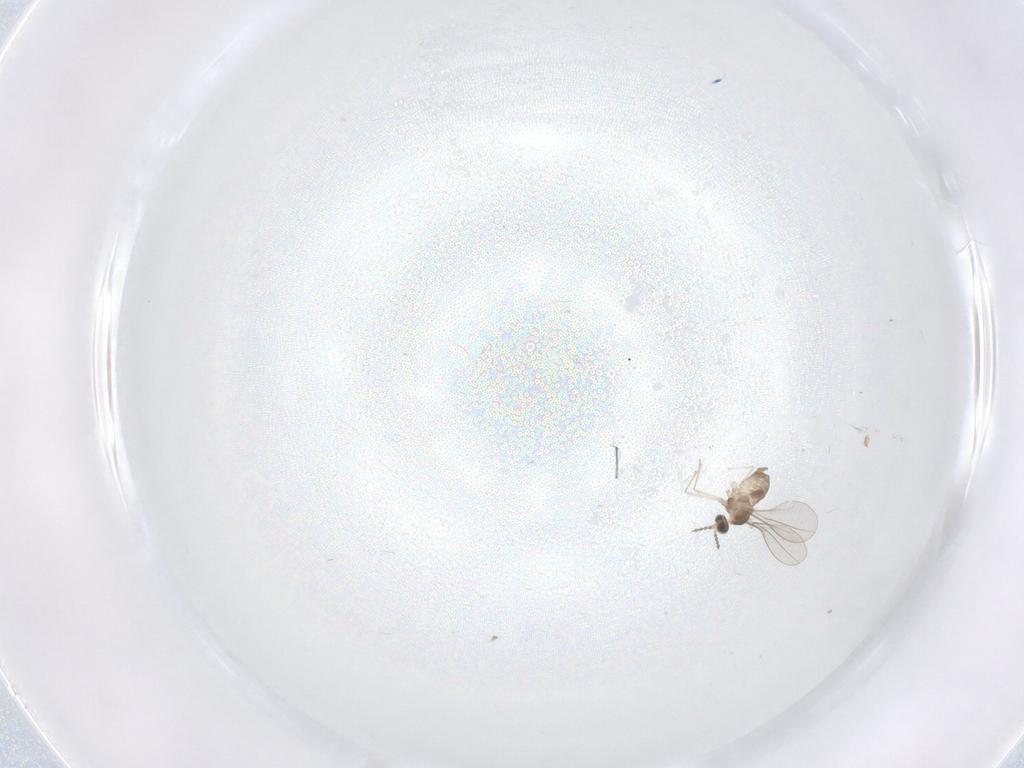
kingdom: Animalia
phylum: Arthropoda
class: Insecta
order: Diptera
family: Chironomidae
